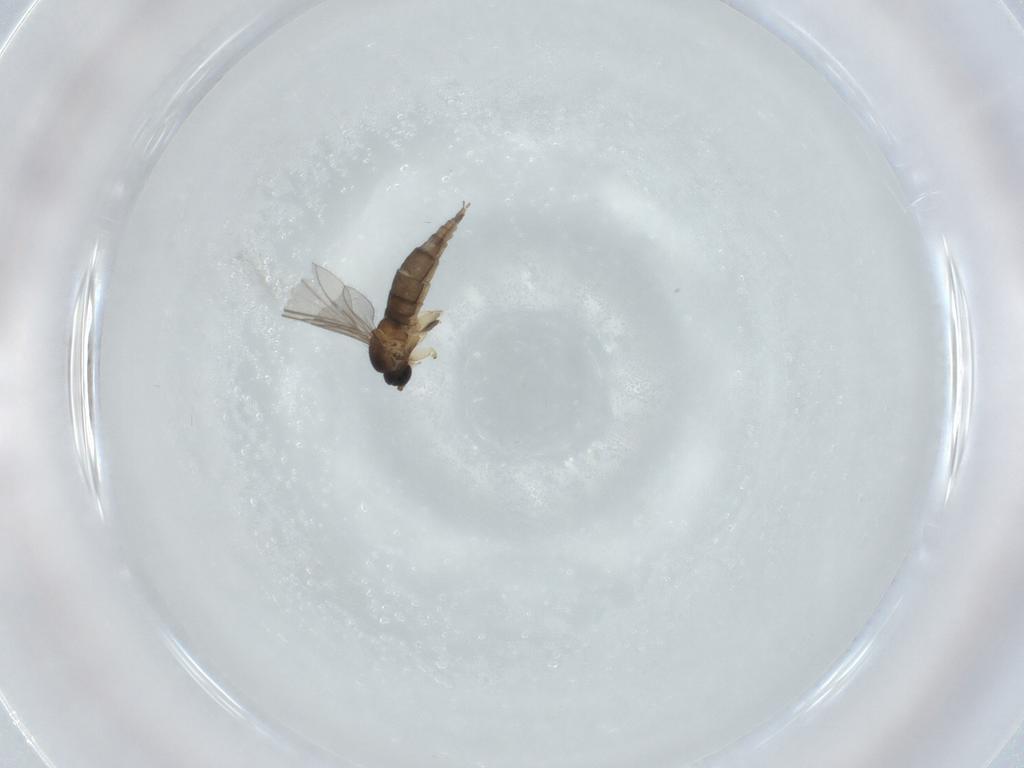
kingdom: Animalia
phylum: Arthropoda
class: Insecta
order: Diptera
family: Sciaridae
